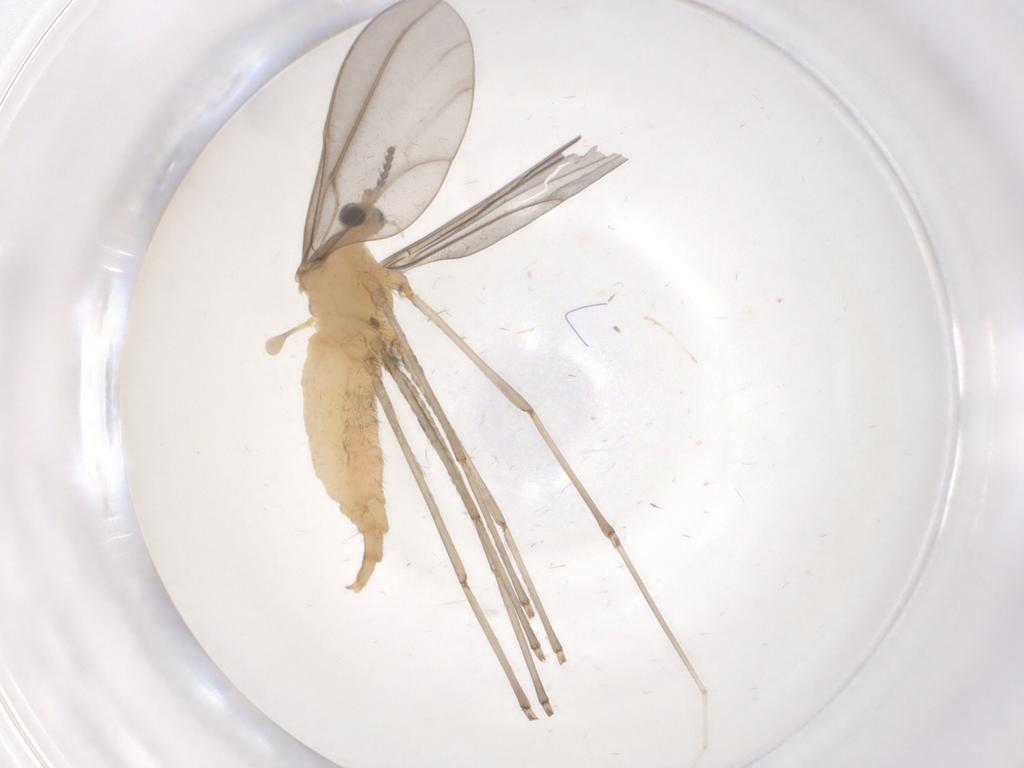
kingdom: Animalia
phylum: Arthropoda
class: Insecta
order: Diptera
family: Cecidomyiidae
